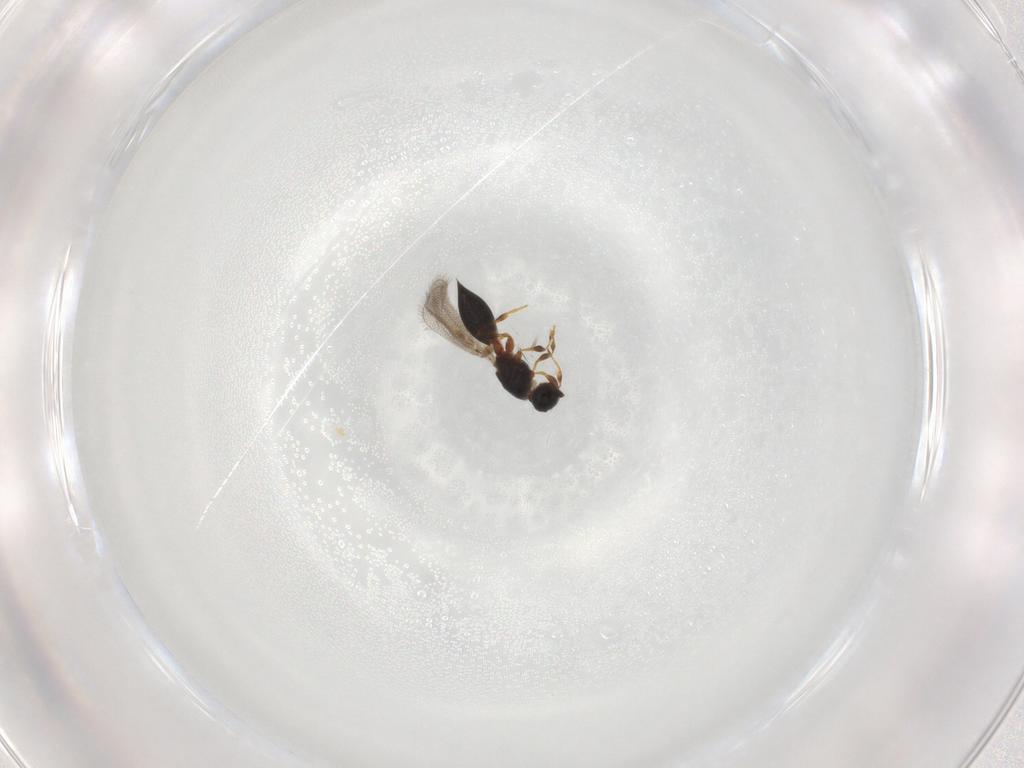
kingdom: Animalia
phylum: Arthropoda
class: Insecta
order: Hymenoptera
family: Diapriidae
